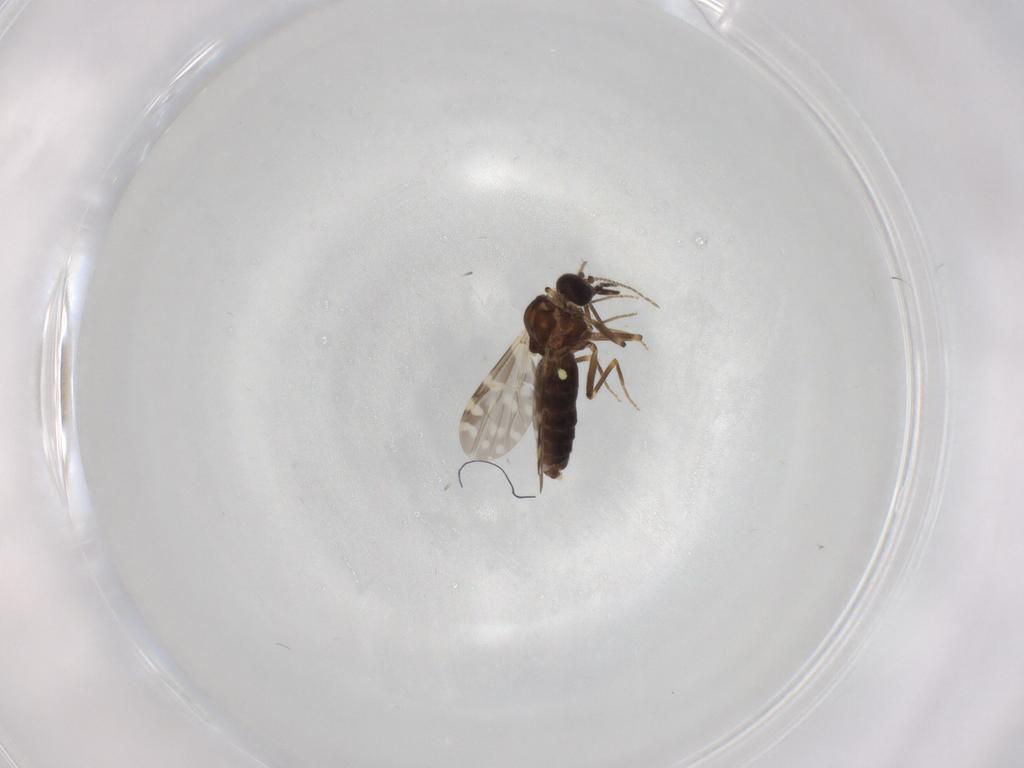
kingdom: Animalia
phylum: Arthropoda
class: Insecta
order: Diptera
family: Ceratopogonidae
